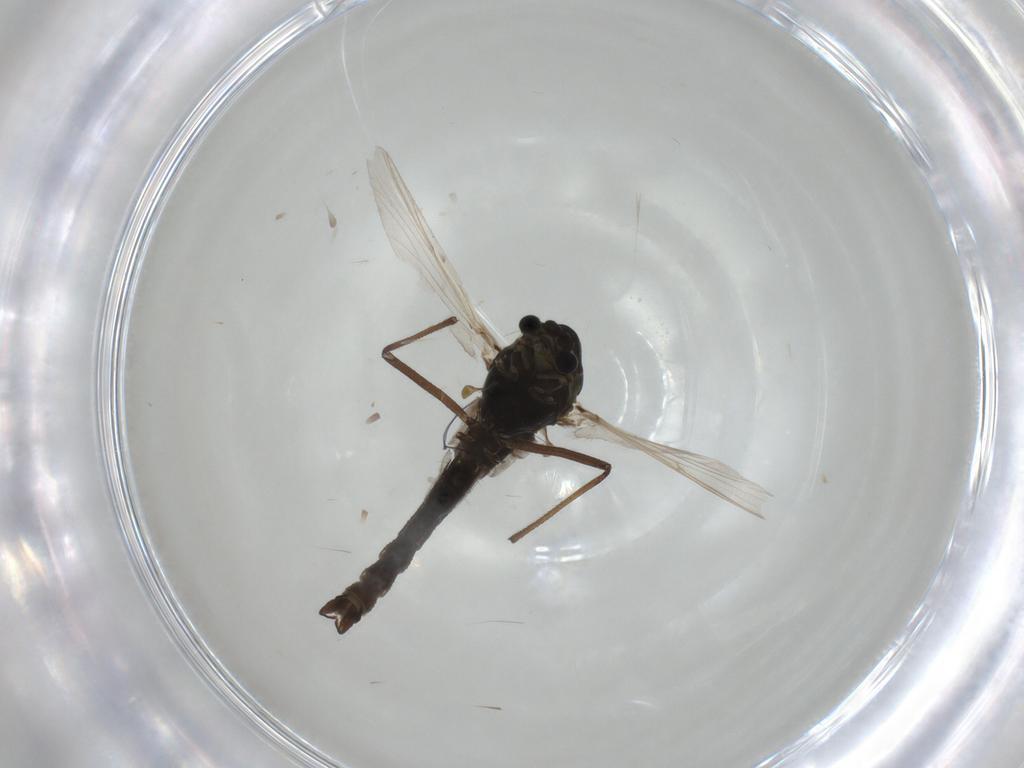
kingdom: Animalia
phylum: Arthropoda
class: Insecta
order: Diptera
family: Chironomidae
